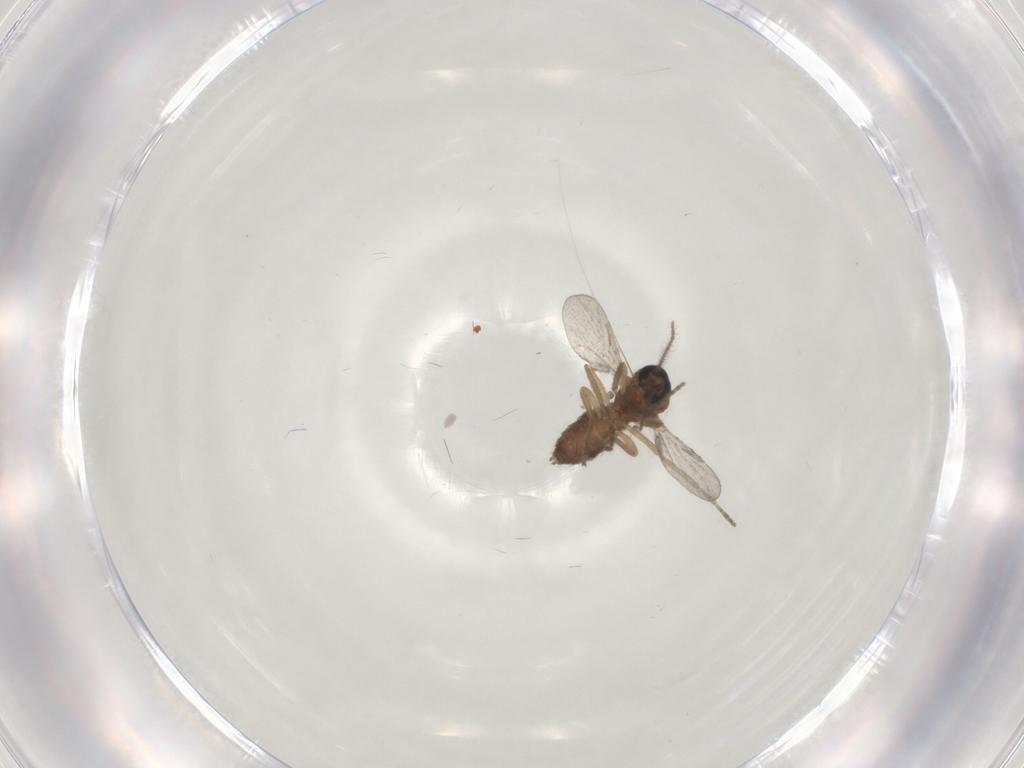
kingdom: Animalia
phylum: Arthropoda
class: Insecta
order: Diptera
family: Ceratopogonidae
